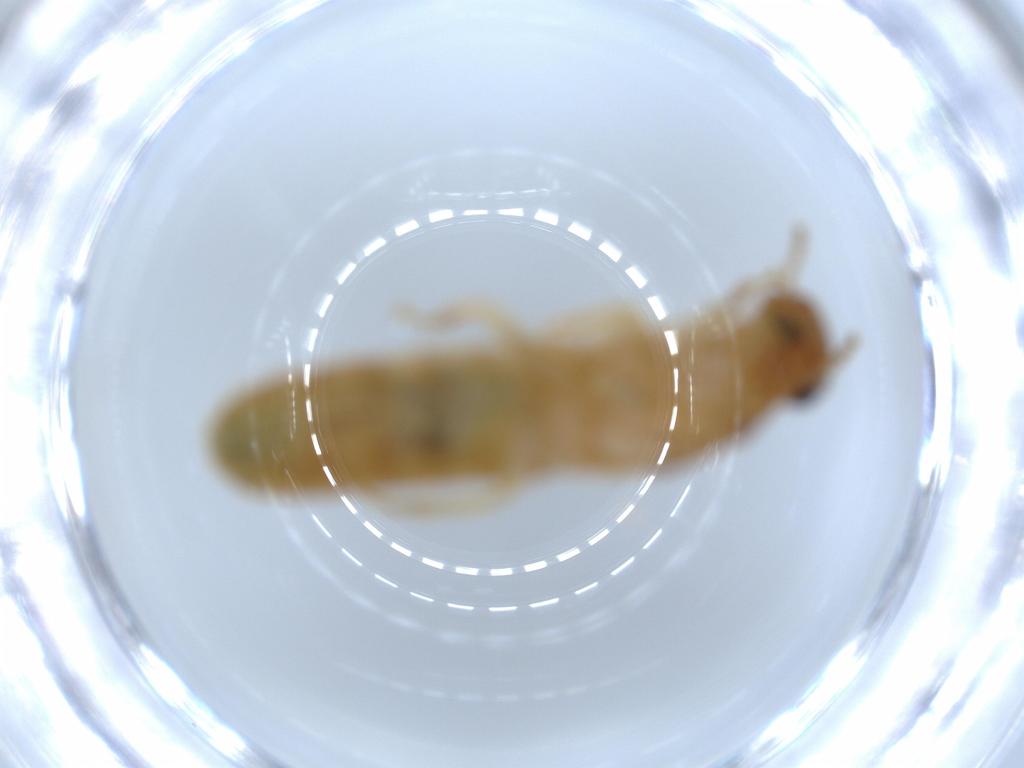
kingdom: Animalia
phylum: Arthropoda
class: Insecta
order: Blattodea
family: Kalotermitidae
